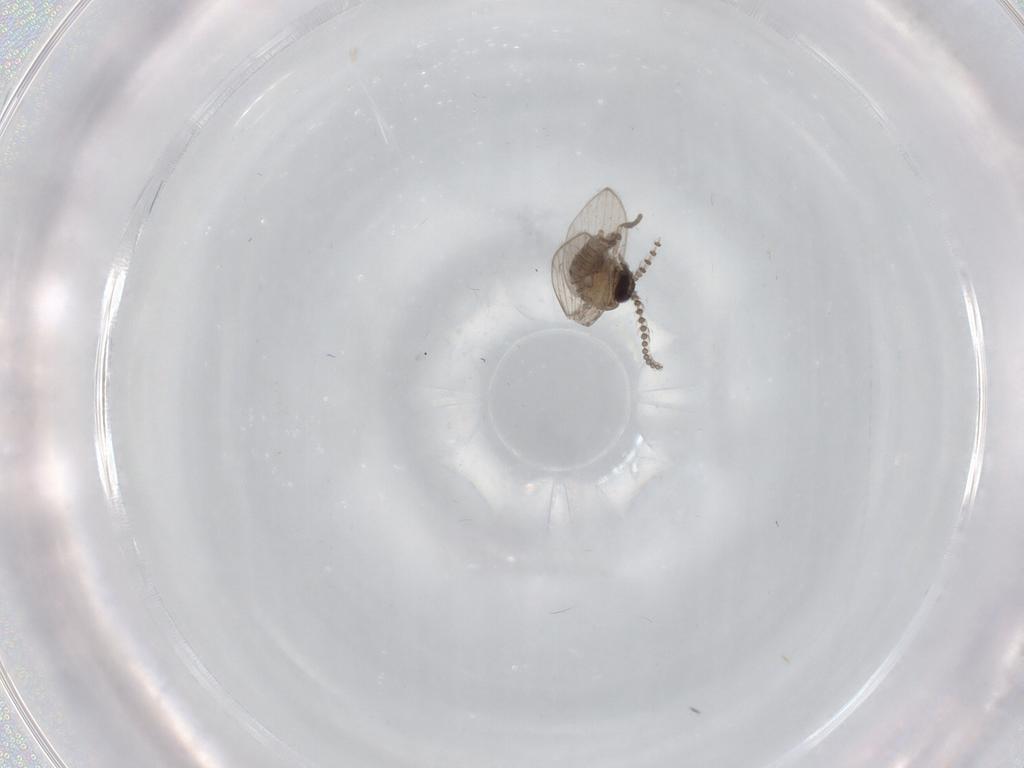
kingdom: Animalia
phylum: Arthropoda
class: Insecta
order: Diptera
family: Psychodidae
